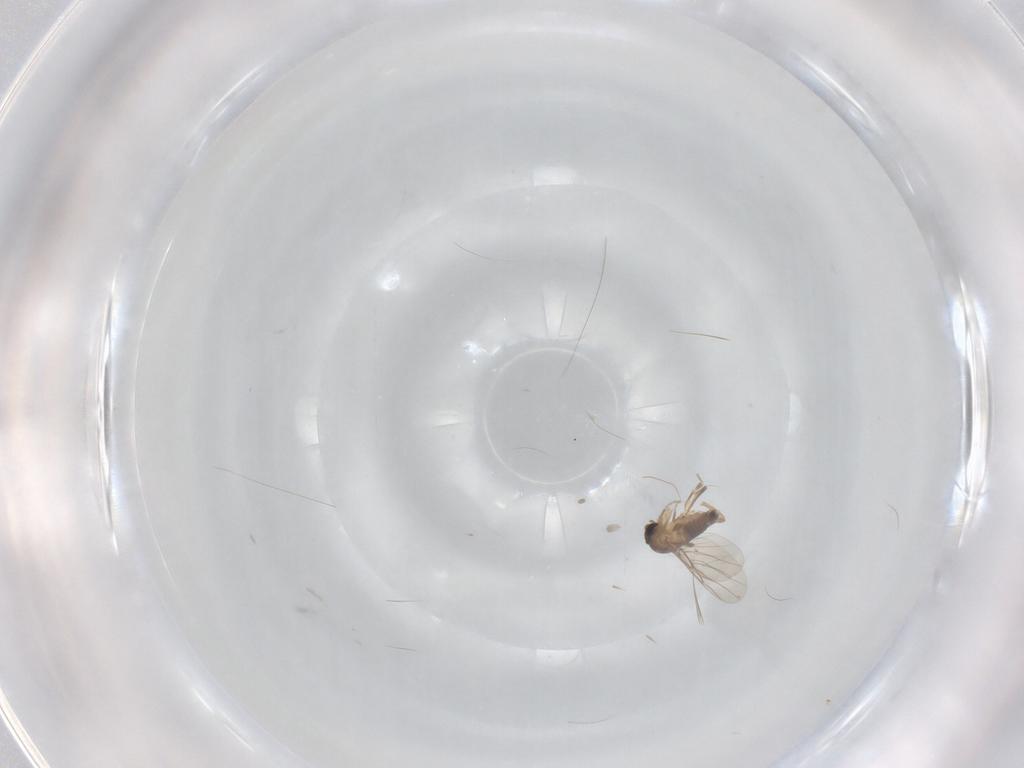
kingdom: Animalia
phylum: Arthropoda
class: Insecta
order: Diptera
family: Phoridae
